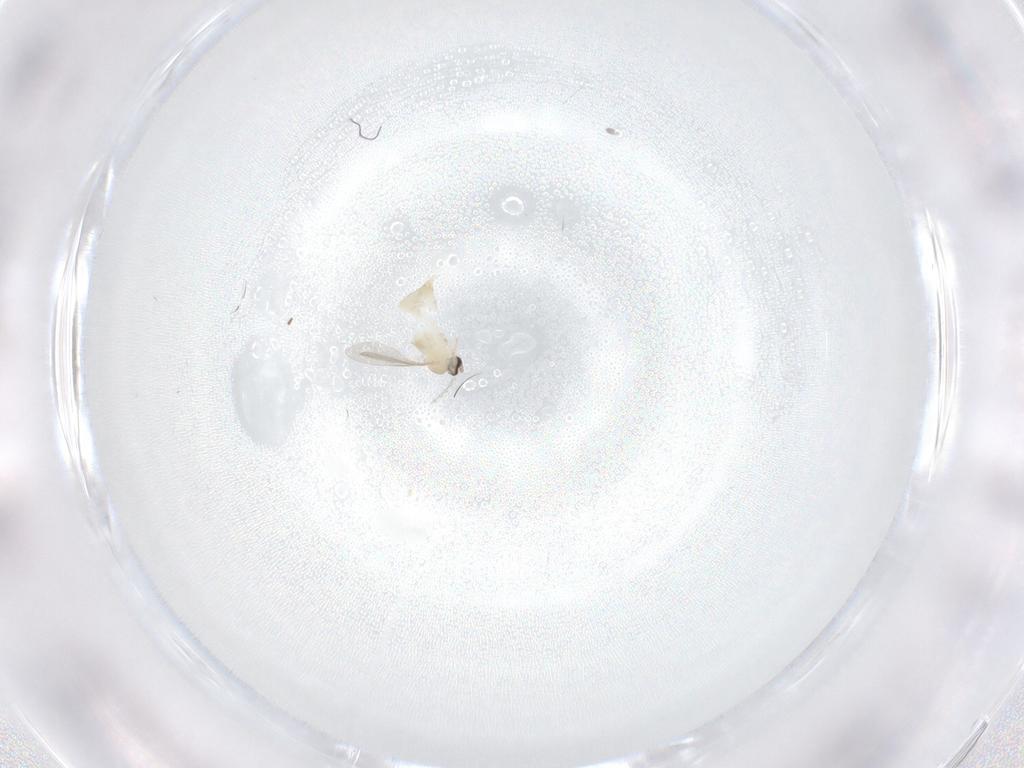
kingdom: Animalia
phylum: Arthropoda
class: Insecta
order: Diptera
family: Cecidomyiidae
